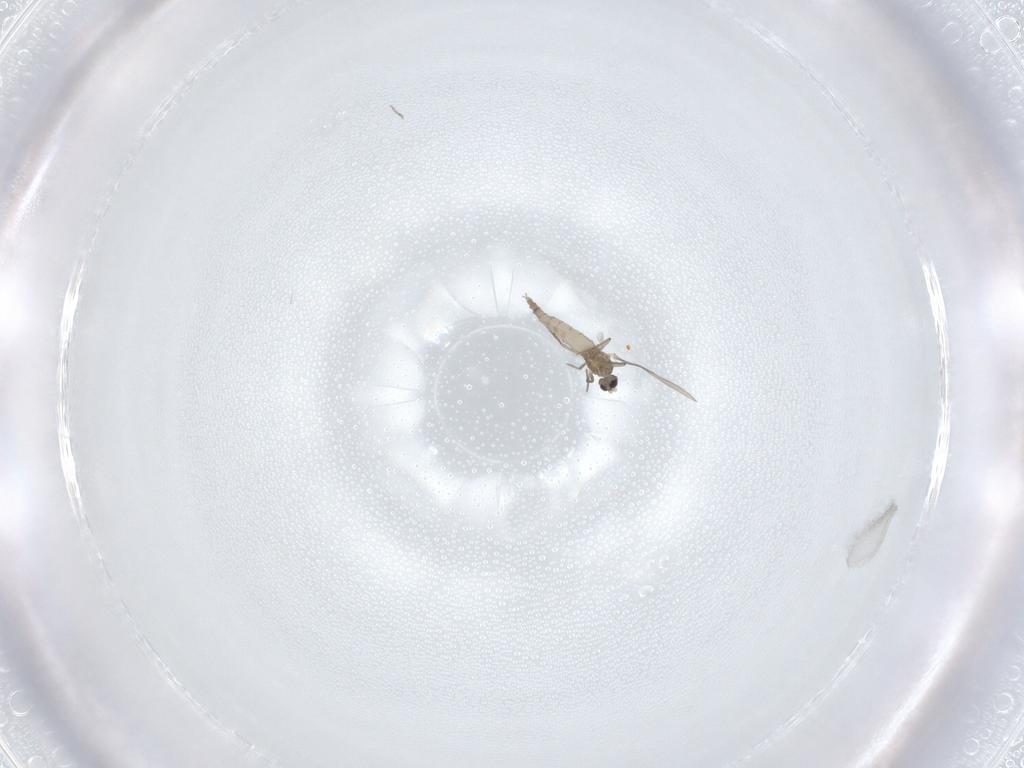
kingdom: Animalia
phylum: Arthropoda
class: Insecta
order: Diptera
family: Cecidomyiidae
